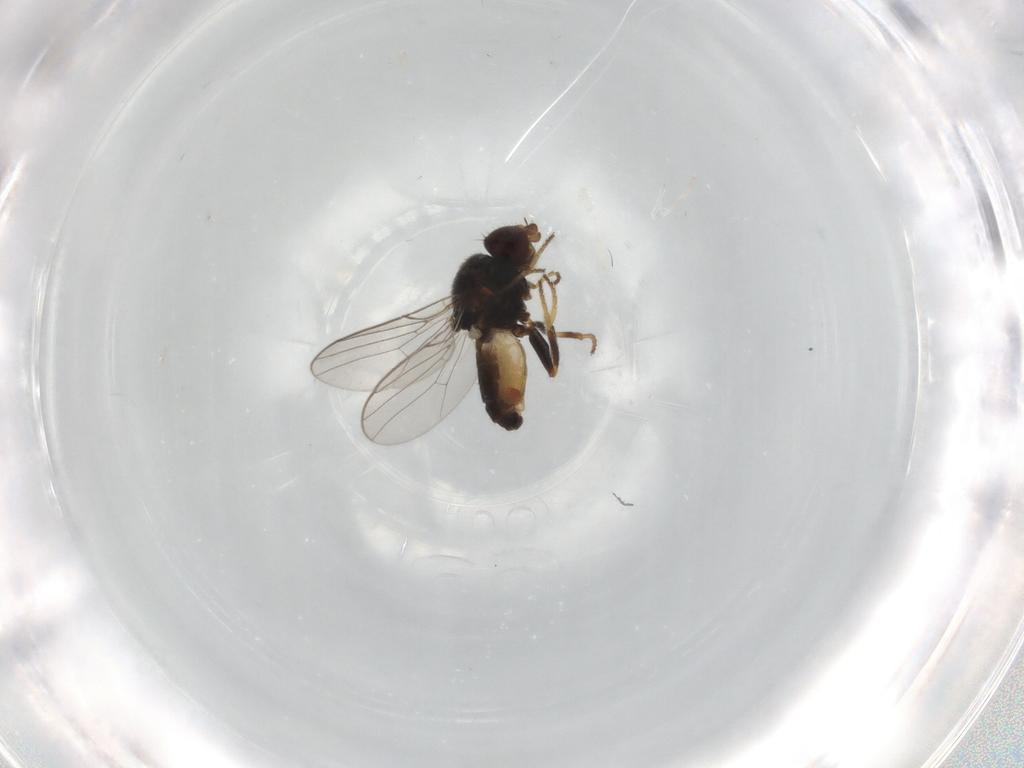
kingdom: Animalia
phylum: Arthropoda
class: Insecta
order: Diptera
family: Chloropidae
